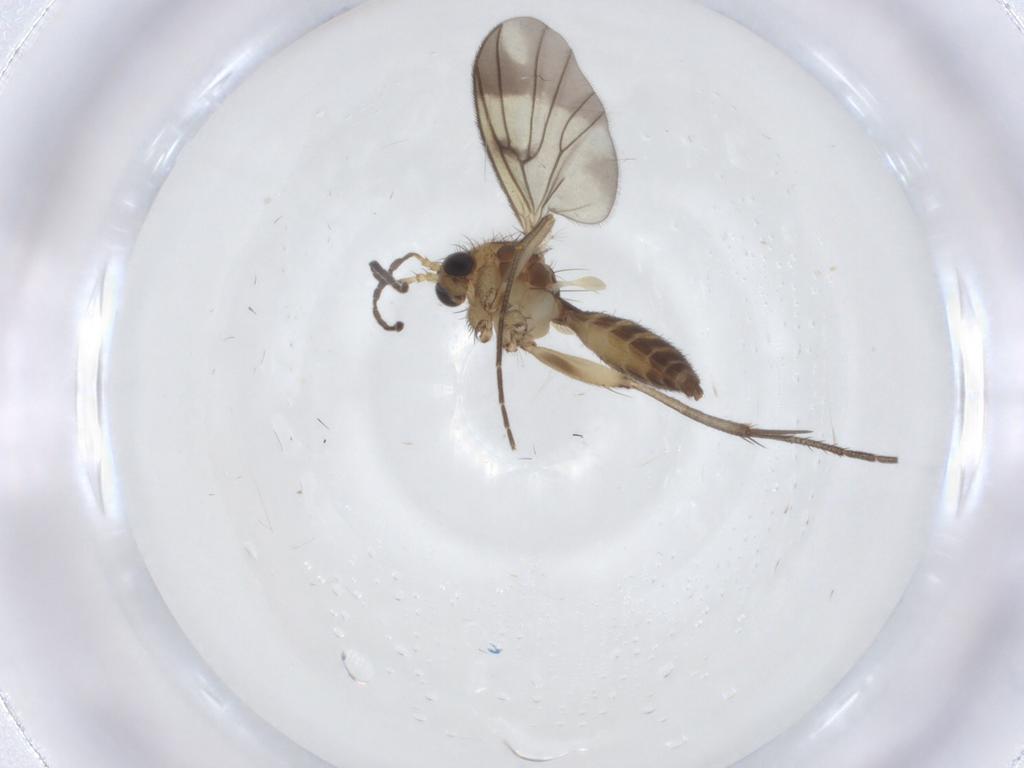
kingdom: Animalia
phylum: Arthropoda
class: Insecta
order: Diptera
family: Mycetophilidae
